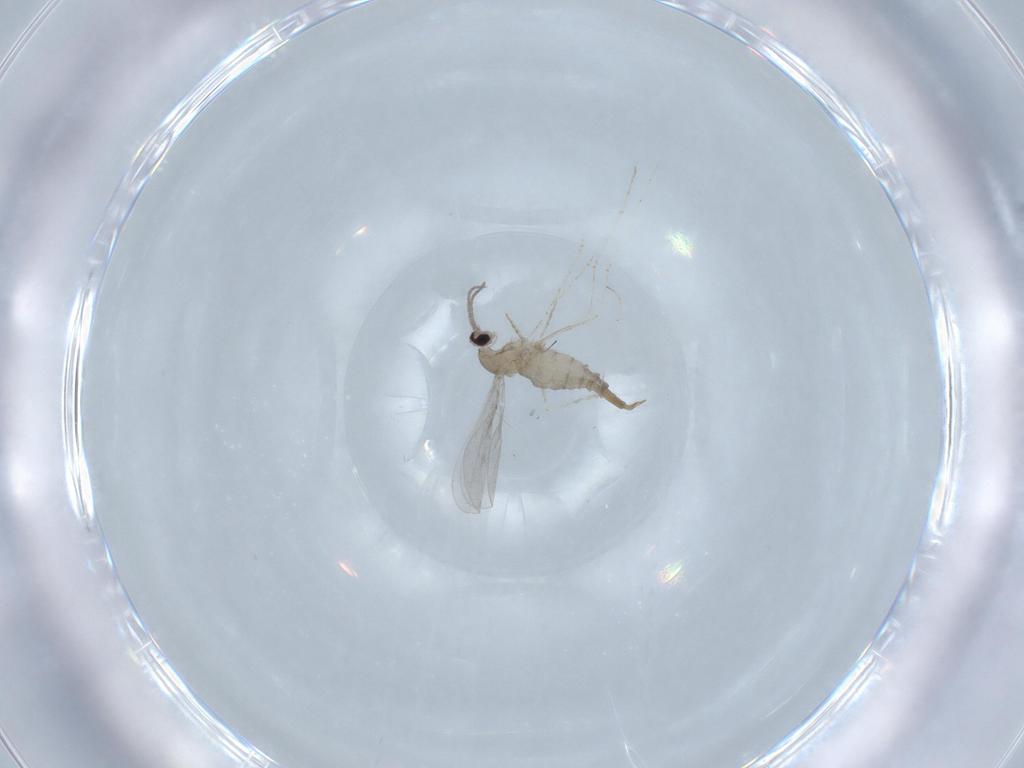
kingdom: Animalia
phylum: Arthropoda
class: Insecta
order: Diptera
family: Cecidomyiidae
